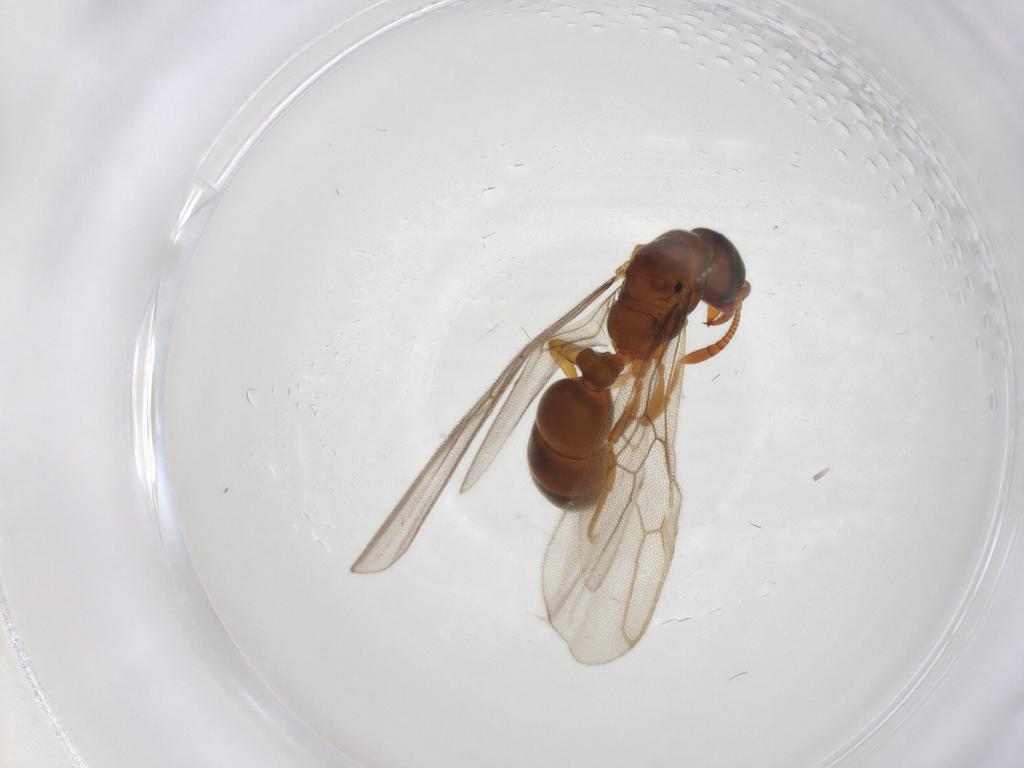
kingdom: Animalia
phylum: Arthropoda
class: Insecta
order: Hymenoptera
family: Formicidae
